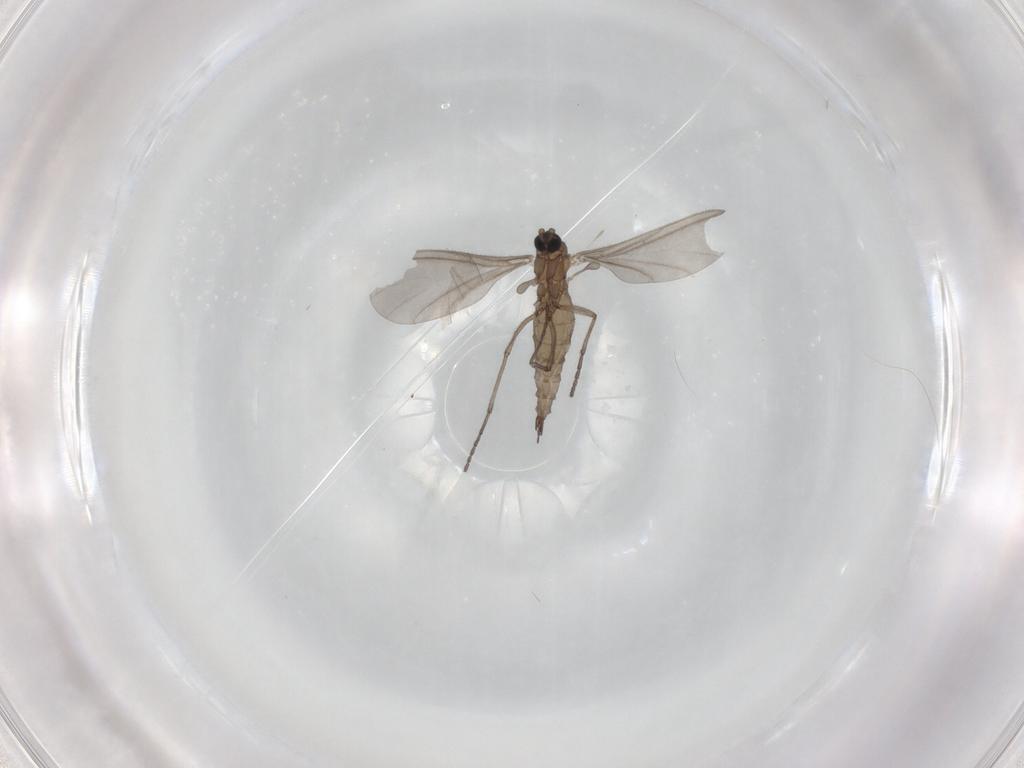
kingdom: Animalia
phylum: Arthropoda
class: Insecta
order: Diptera
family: Sciaridae
